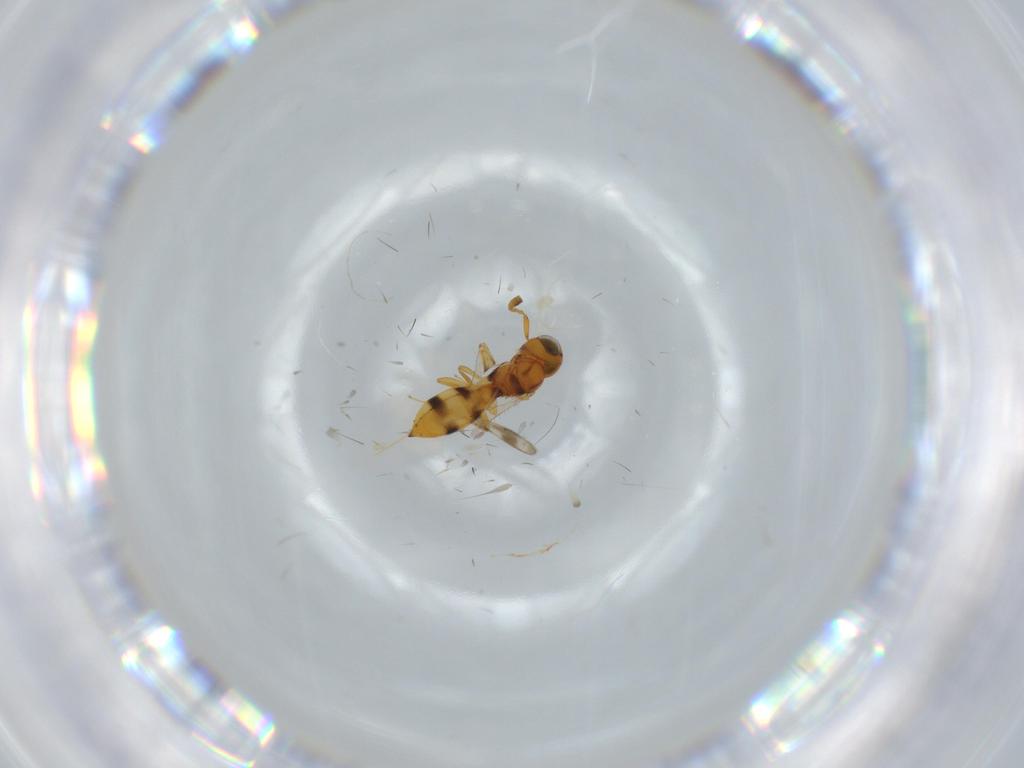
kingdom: Animalia
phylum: Arthropoda
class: Insecta
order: Hymenoptera
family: Scelionidae
